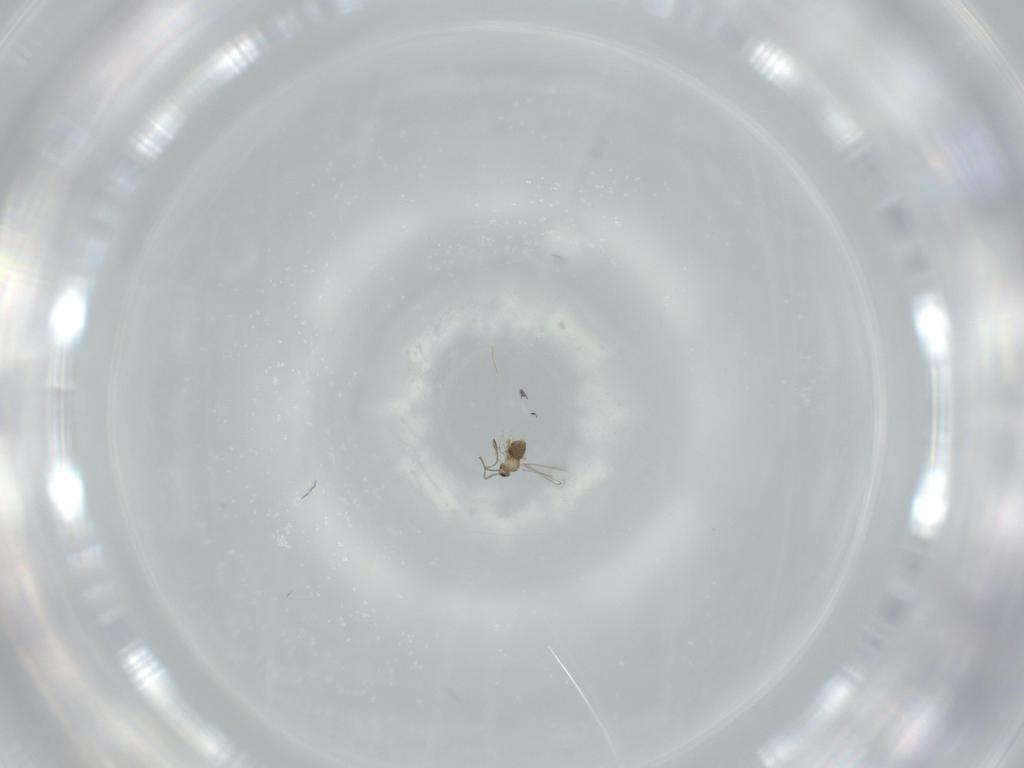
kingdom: Animalia
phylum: Arthropoda
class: Insecta
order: Hymenoptera
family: Mymaridae
